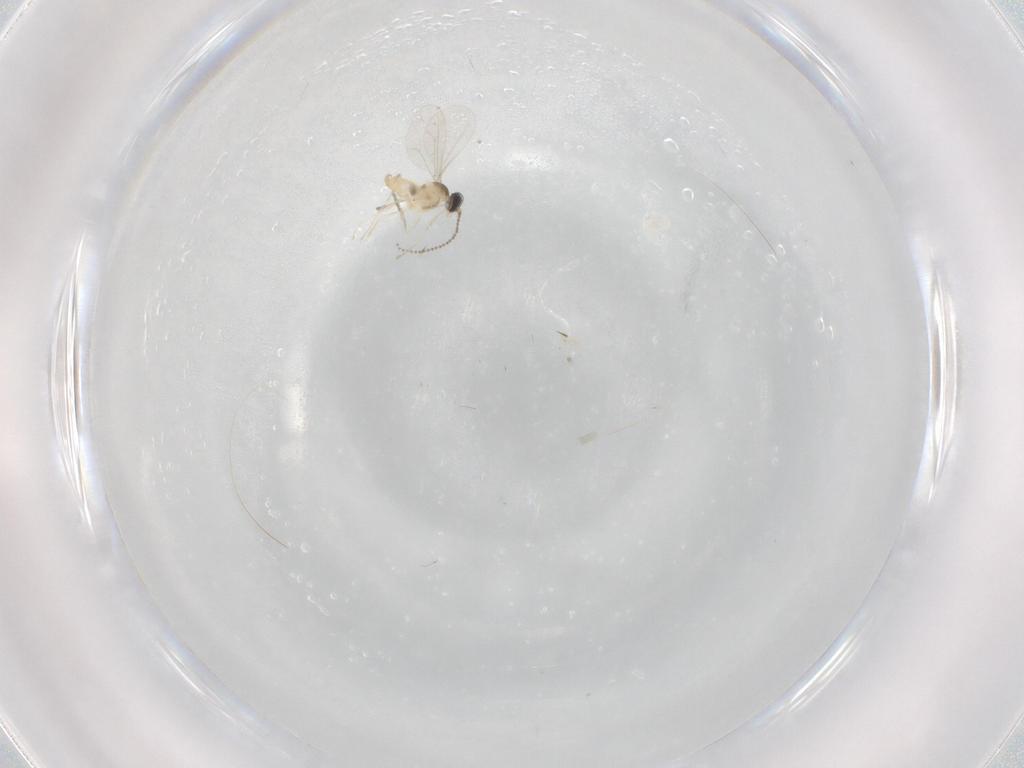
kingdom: Animalia
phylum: Arthropoda
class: Insecta
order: Diptera
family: Cecidomyiidae
